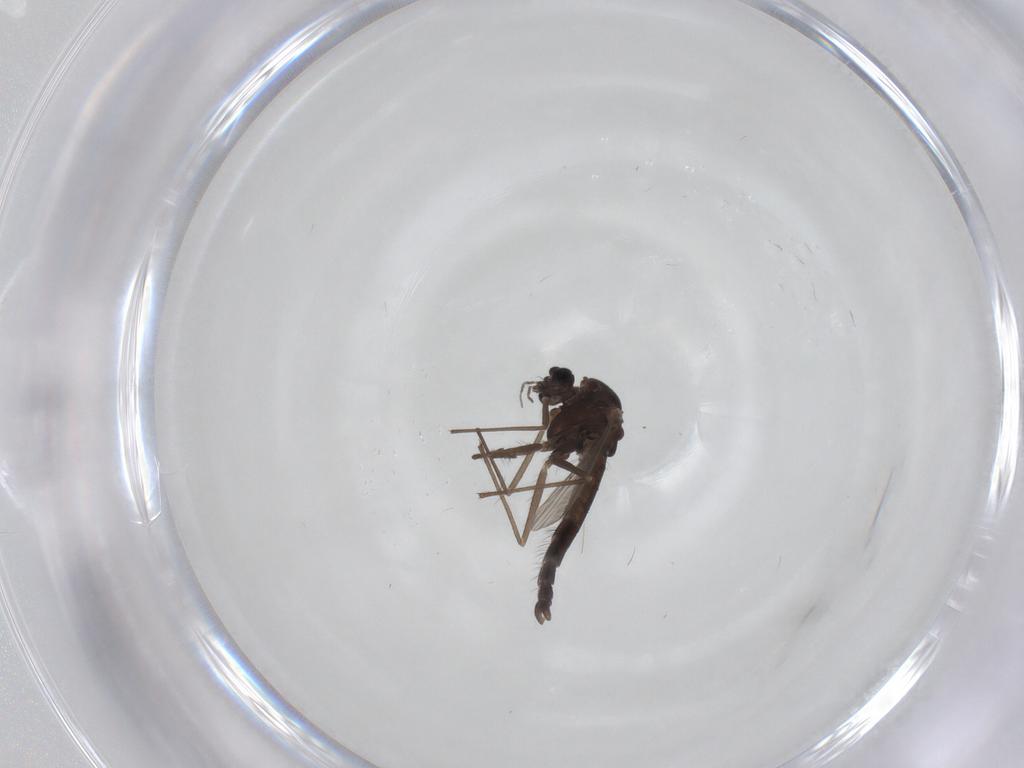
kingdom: Animalia
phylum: Arthropoda
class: Insecta
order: Diptera
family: Chironomidae
